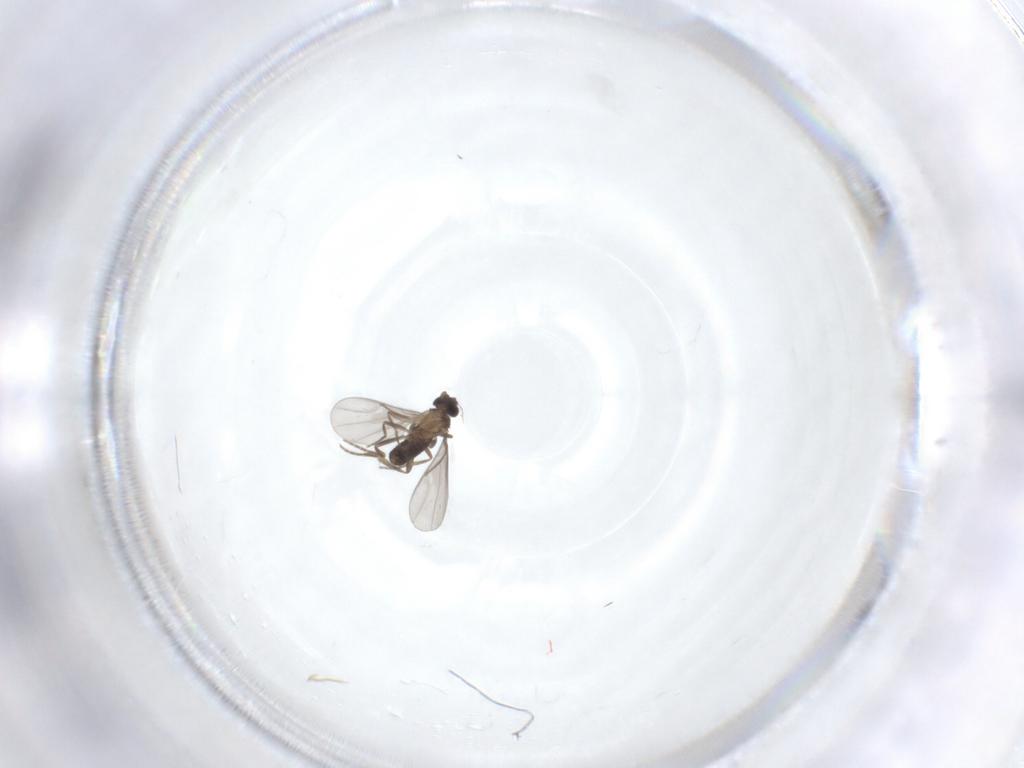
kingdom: Animalia
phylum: Arthropoda
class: Insecta
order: Diptera
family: Phoridae
